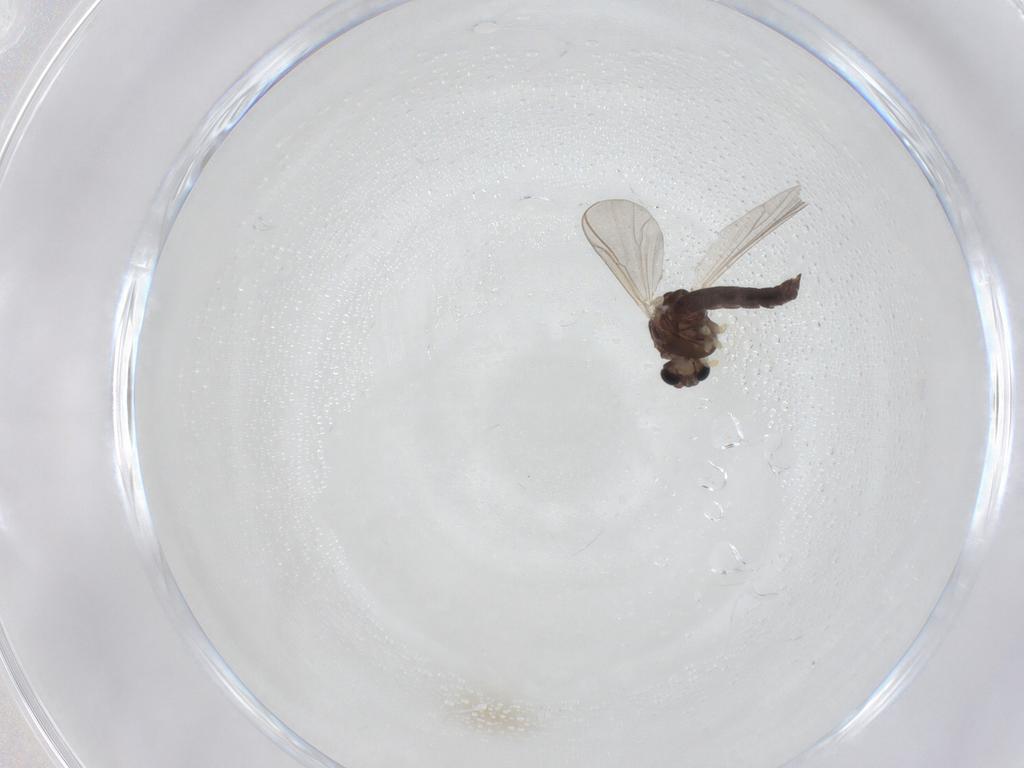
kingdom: Animalia
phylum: Arthropoda
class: Insecta
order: Diptera
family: Chironomidae
